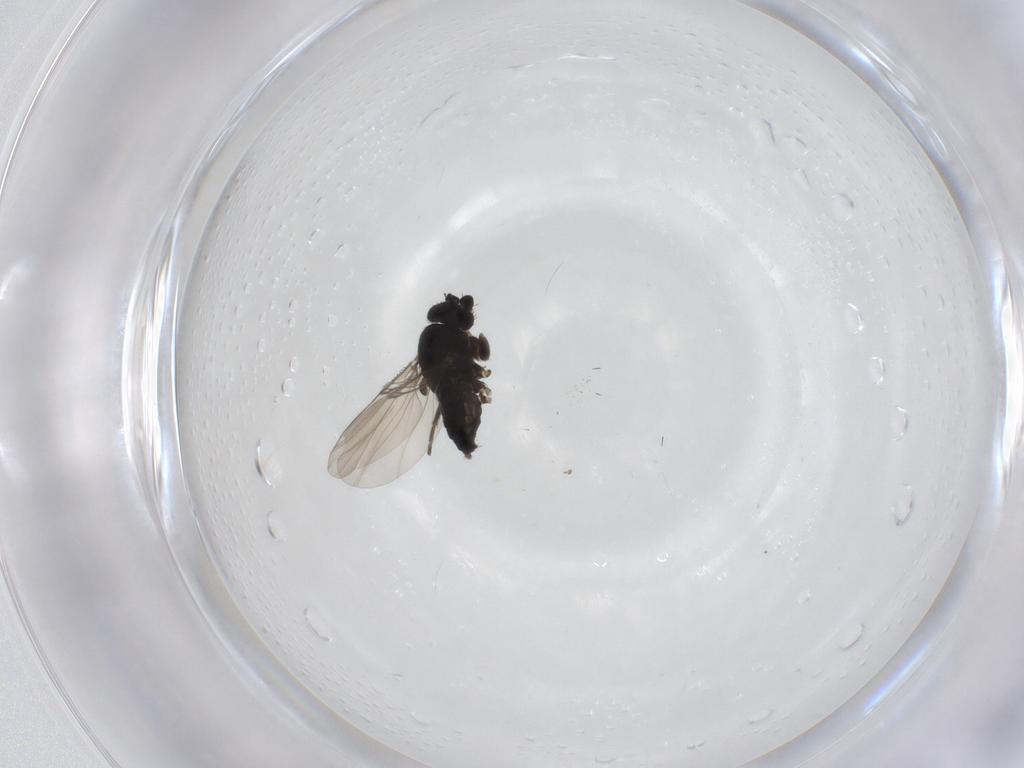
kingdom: Animalia
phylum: Arthropoda
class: Insecta
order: Diptera
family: Phoridae
